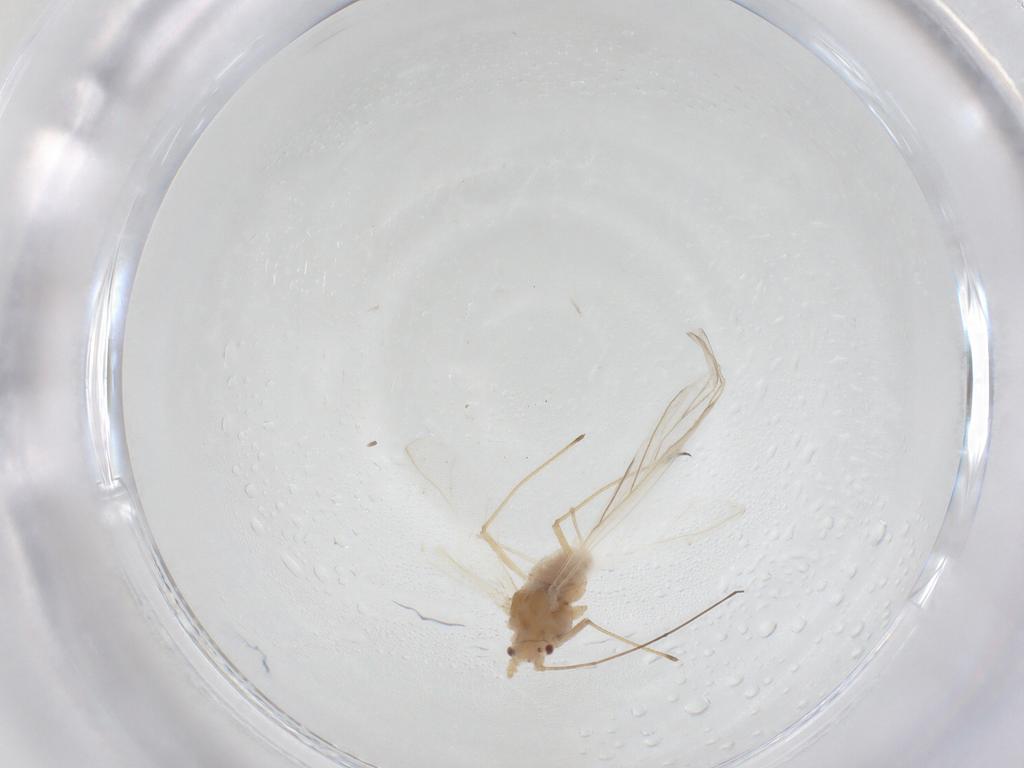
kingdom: Animalia
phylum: Arthropoda
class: Insecta
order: Hemiptera
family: Aphididae
